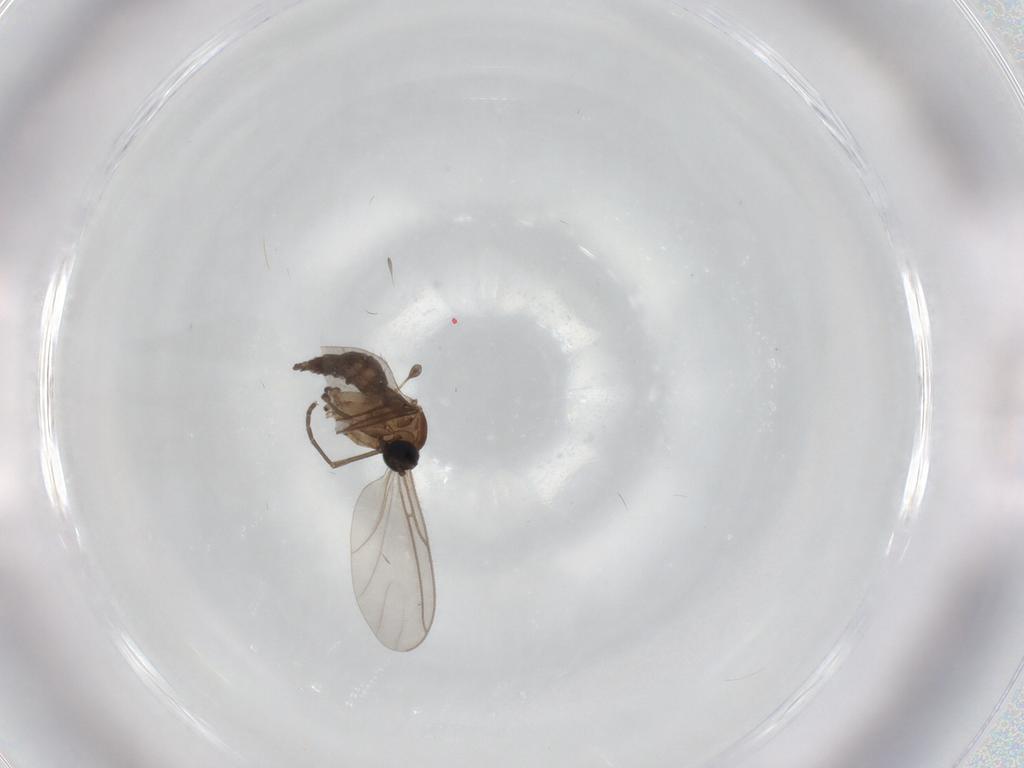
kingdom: Animalia
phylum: Arthropoda
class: Insecta
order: Diptera
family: Sciaridae
